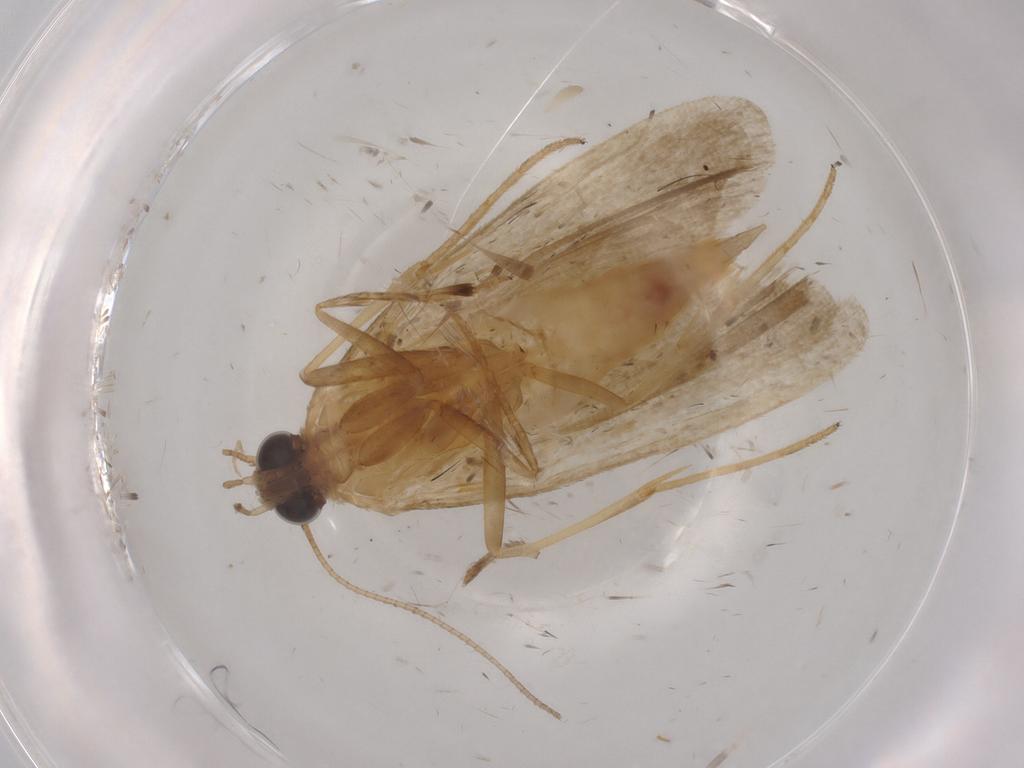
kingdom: Animalia
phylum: Arthropoda
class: Insecta
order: Lepidoptera
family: Noctuidae
